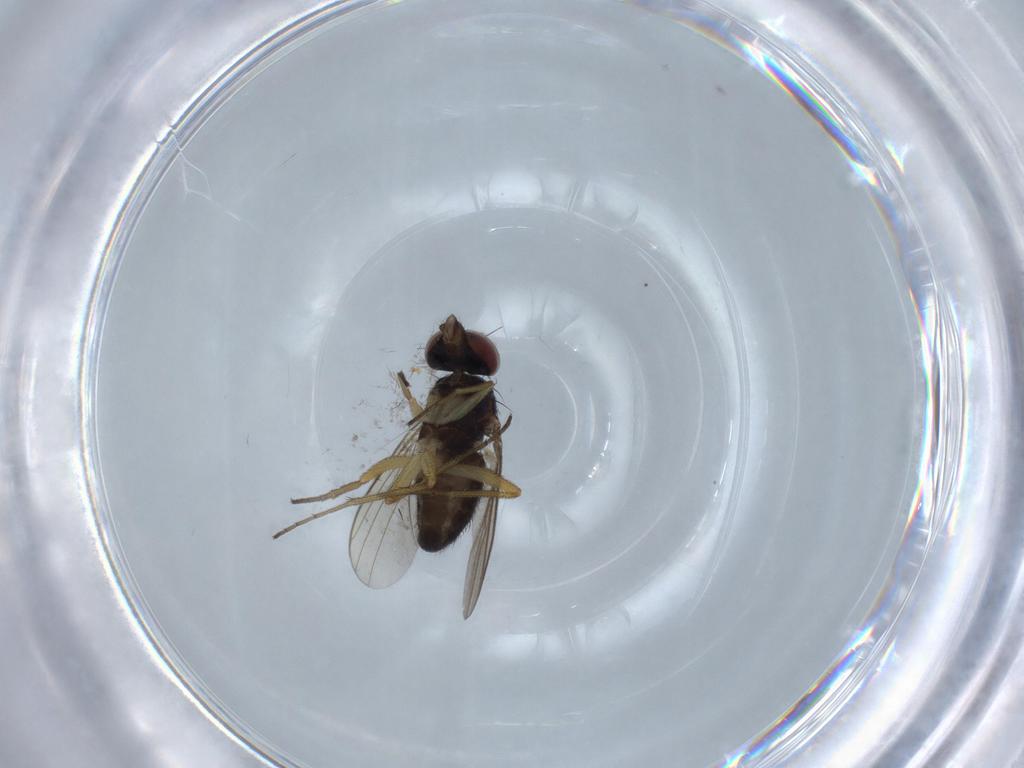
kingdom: Animalia
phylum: Arthropoda
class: Insecta
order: Diptera
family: Dolichopodidae
